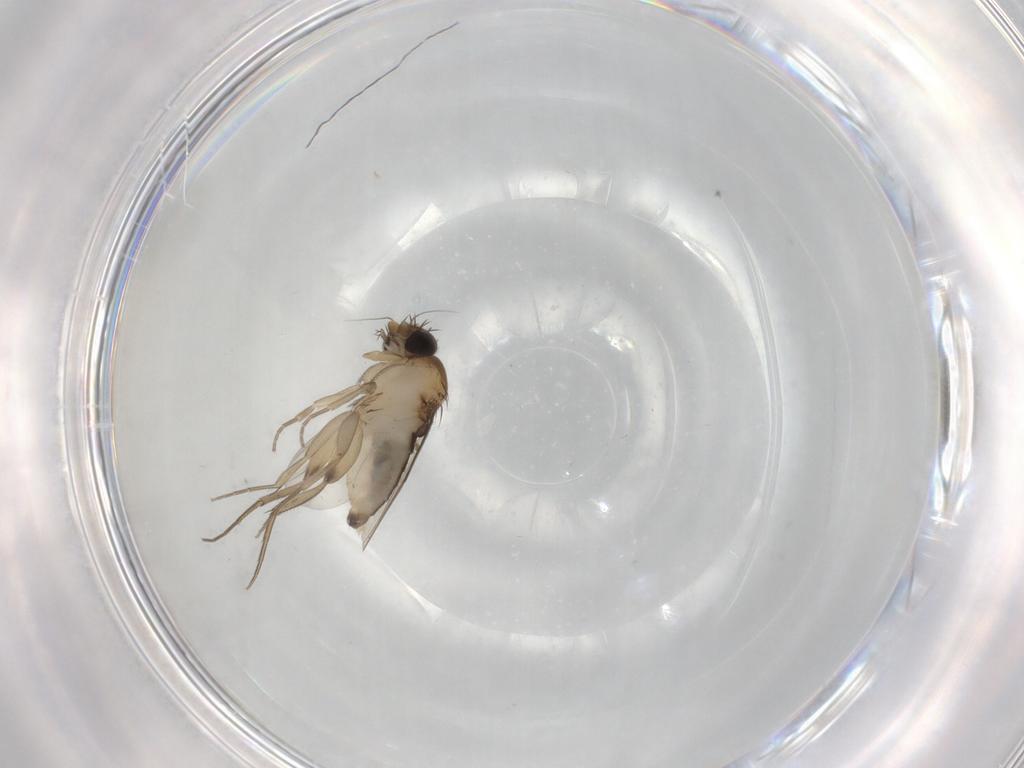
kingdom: Animalia
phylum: Arthropoda
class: Insecta
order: Diptera
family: Phoridae
